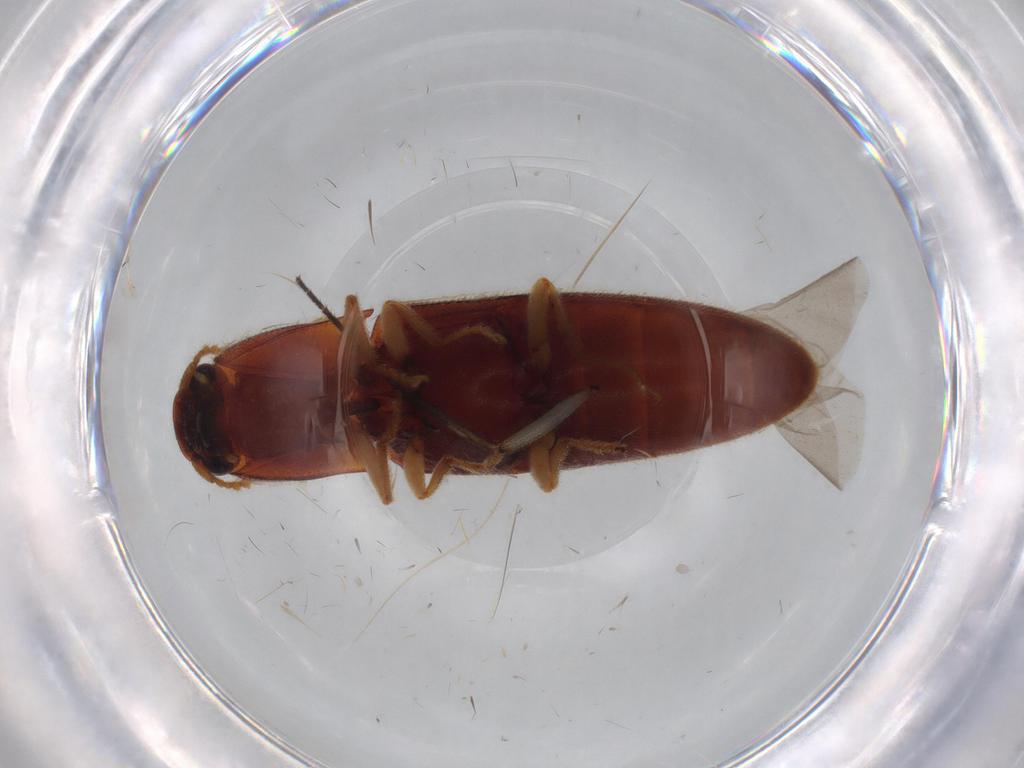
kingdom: Animalia
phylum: Arthropoda
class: Insecta
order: Coleoptera
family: Elateridae
